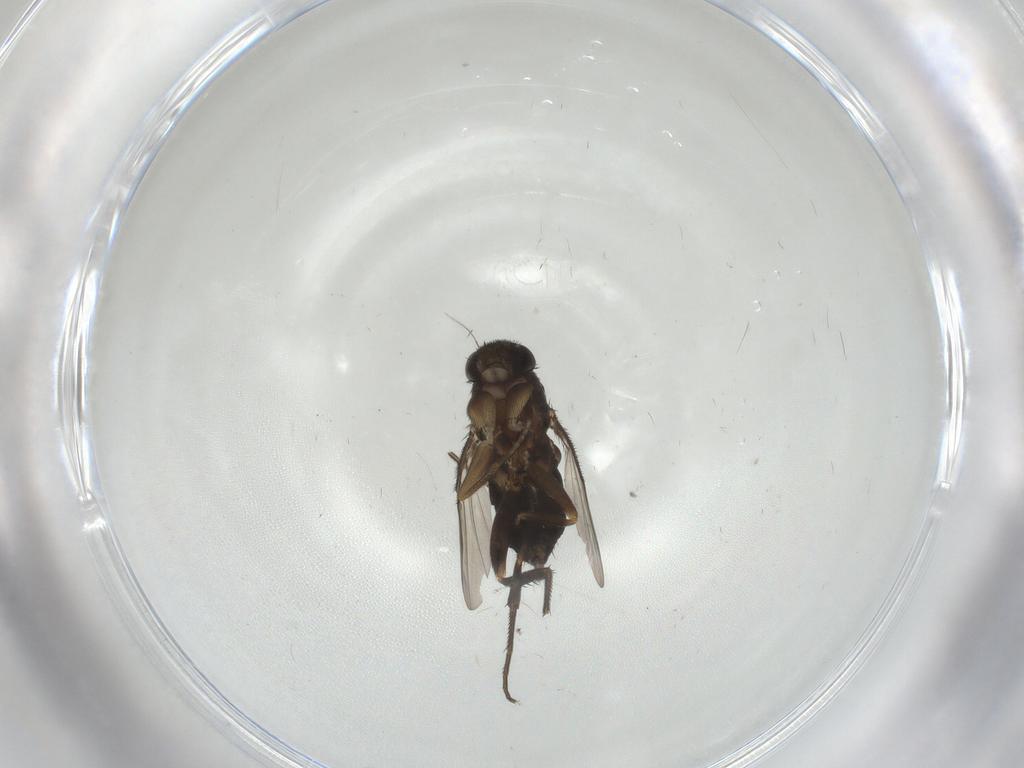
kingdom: Animalia
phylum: Arthropoda
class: Insecta
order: Diptera
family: Phoridae
